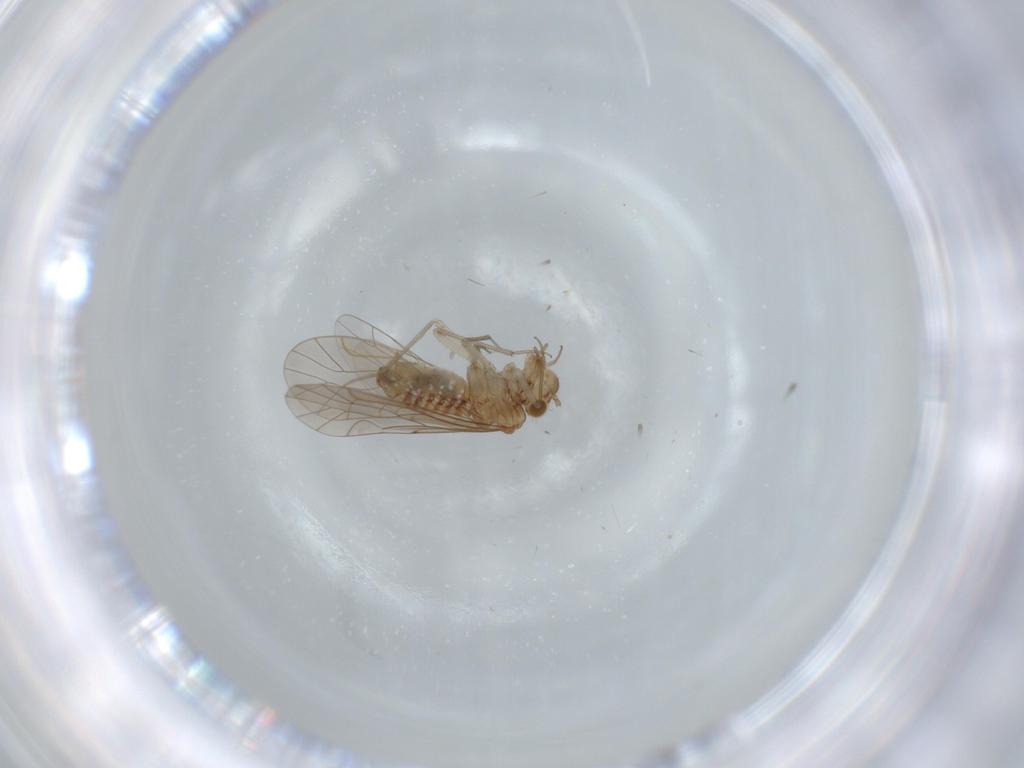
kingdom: Animalia
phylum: Arthropoda
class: Insecta
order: Psocodea
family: Lachesillidae
